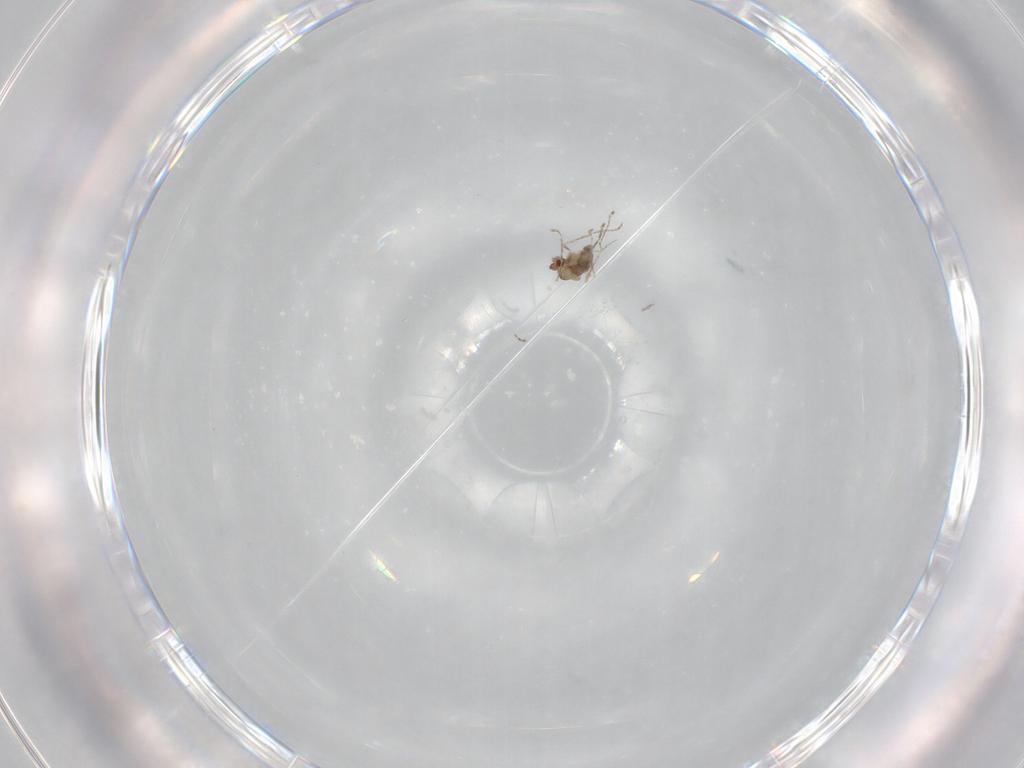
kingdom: Animalia
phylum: Arthropoda
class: Insecta
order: Diptera
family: Cecidomyiidae
